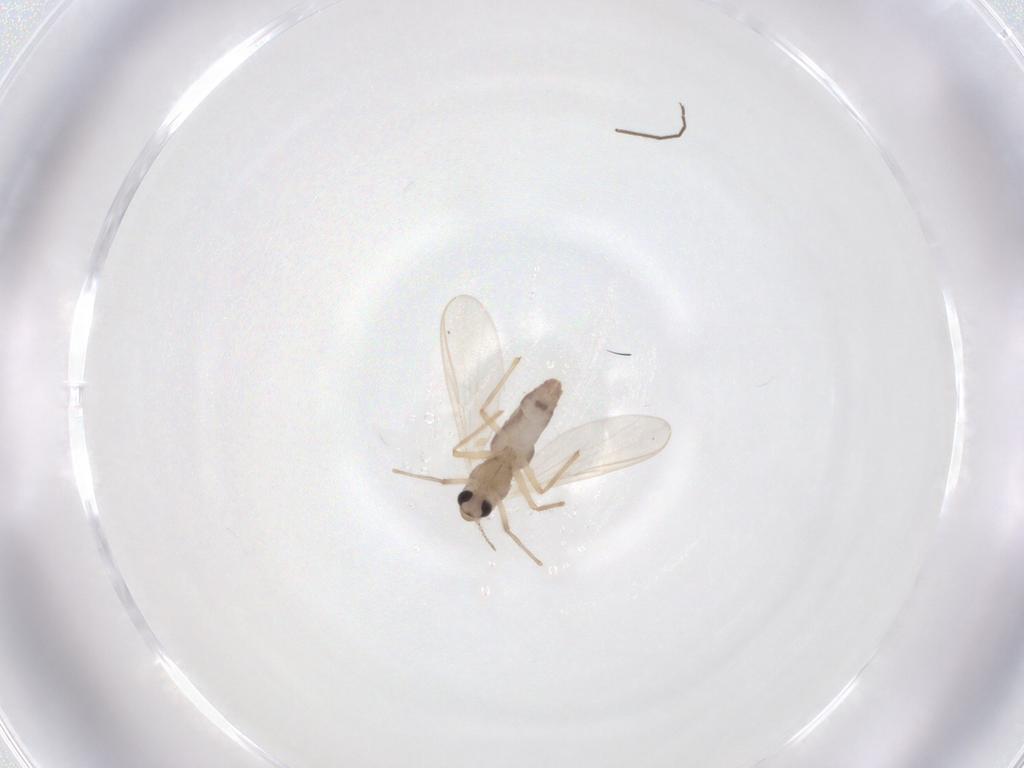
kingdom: Animalia
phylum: Arthropoda
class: Insecta
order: Diptera
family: Chironomidae
